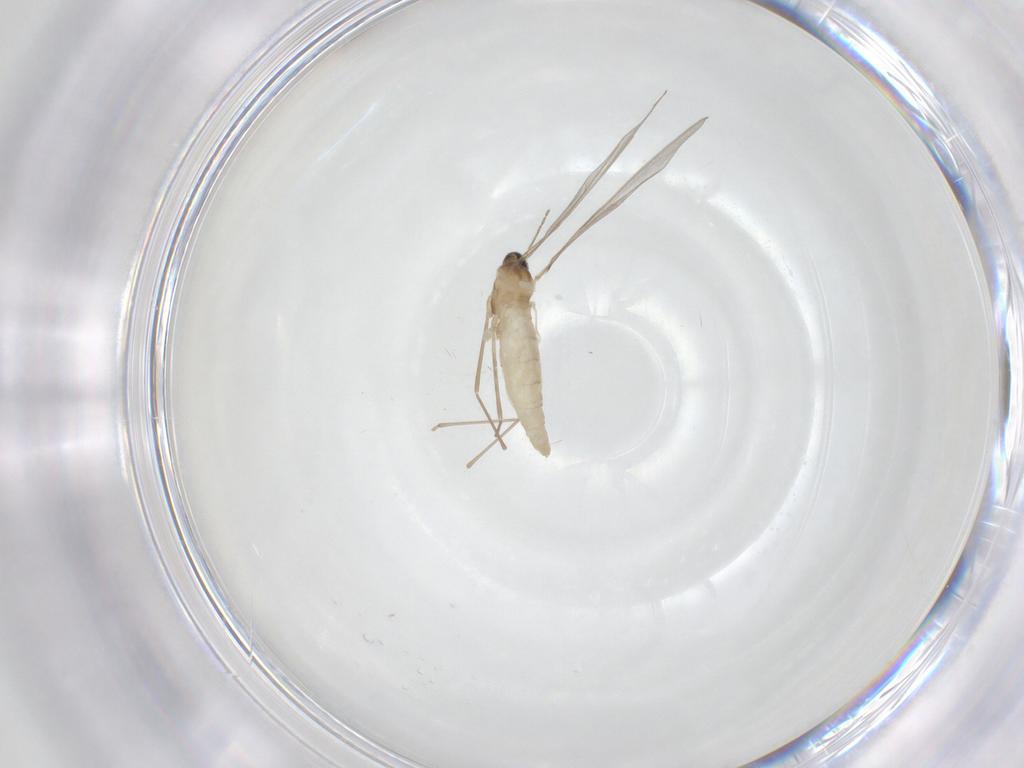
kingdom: Animalia
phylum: Arthropoda
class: Insecta
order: Diptera
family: Cecidomyiidae
